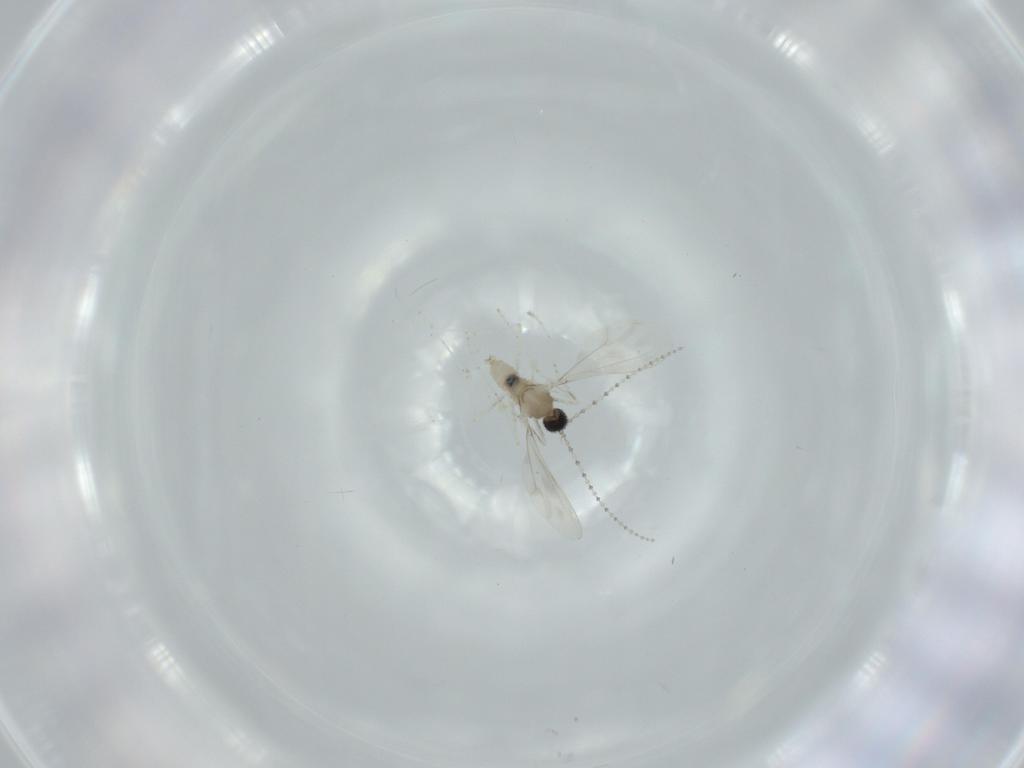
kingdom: Animalia
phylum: Arthropoda
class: Insecta
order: Diptera
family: Cecidomyiidae
